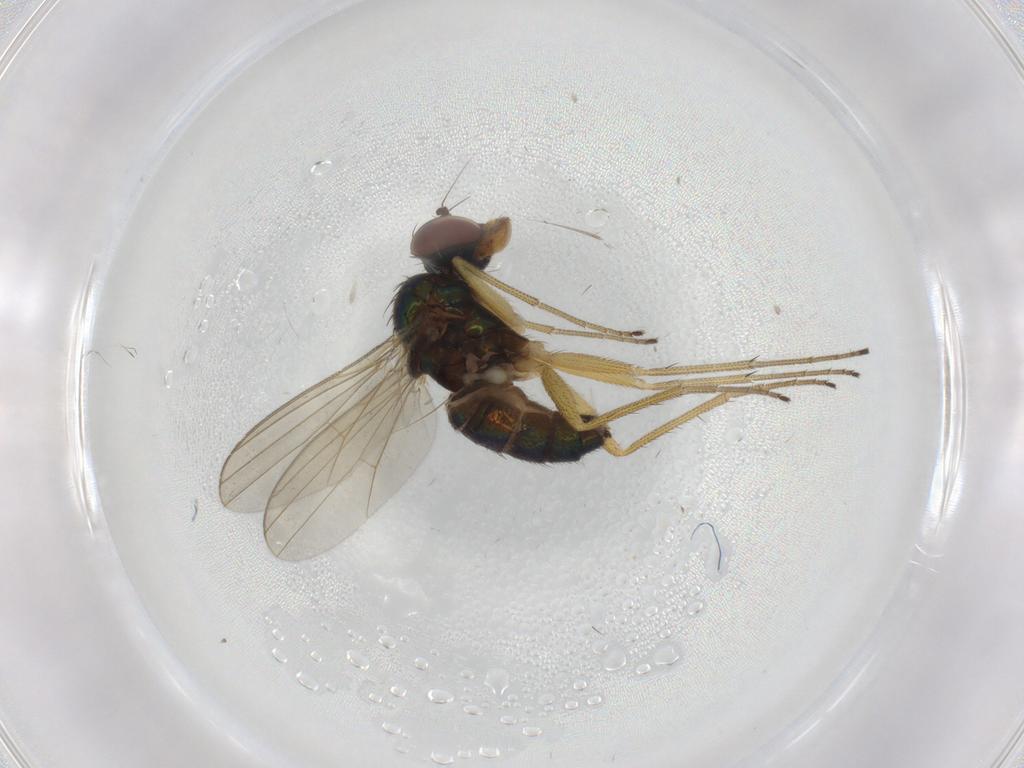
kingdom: Animalia
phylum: Arthropoda
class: Insecta
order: Diptera
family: Dolichopodidae
